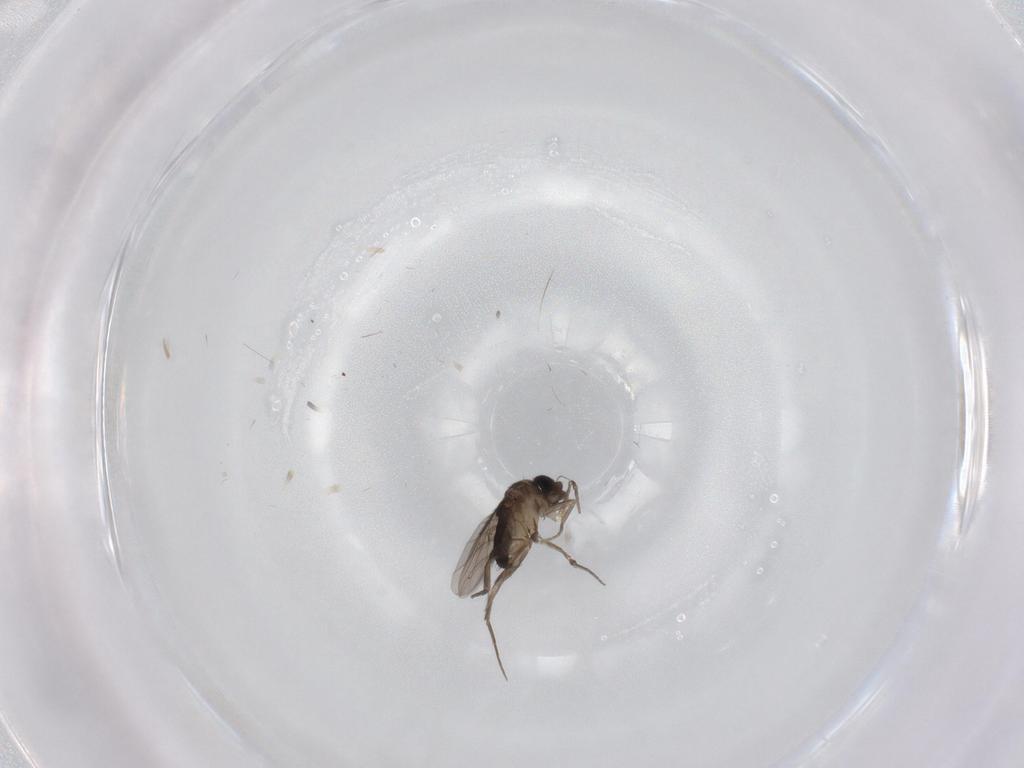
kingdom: Animalia
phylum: Arthropoda
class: Insecta
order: Diptera
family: Phoridae
